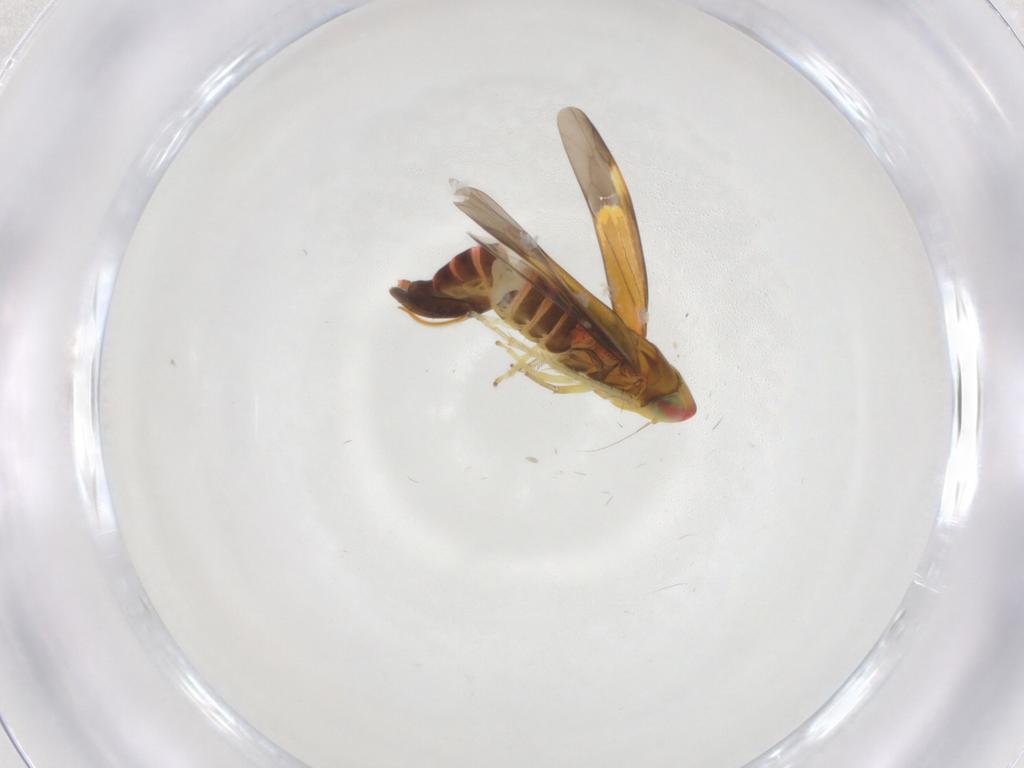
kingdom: Animalia
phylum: Arthropoda
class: Insecta
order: Hemiptera
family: Cicadellidae
